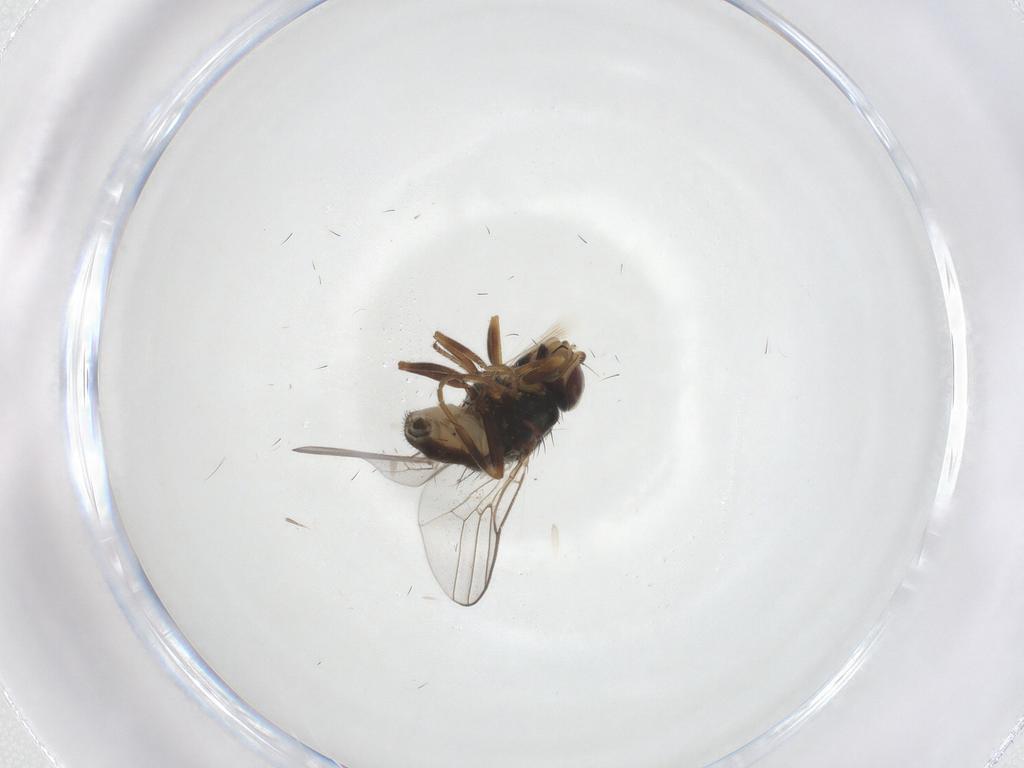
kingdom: Animalia
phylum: Arthropoda
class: Insecta
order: Diptera
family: Chloropidae
